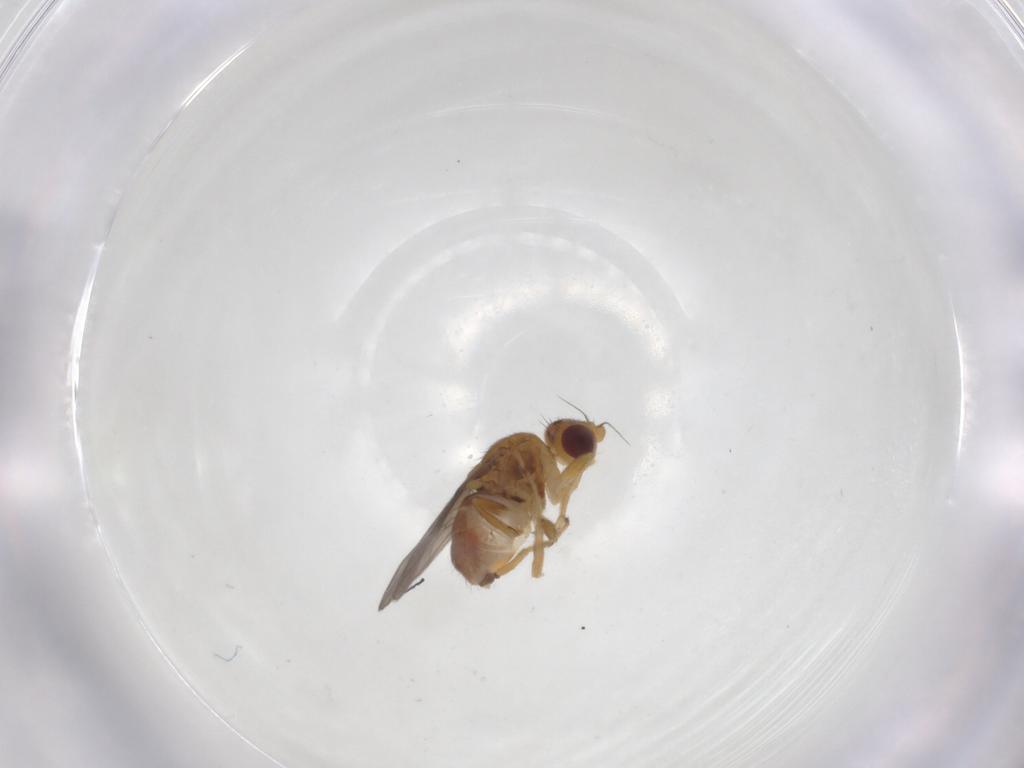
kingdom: Animalia
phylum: Arthropoda
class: Insecta
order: Diptera
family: Chloropidae
